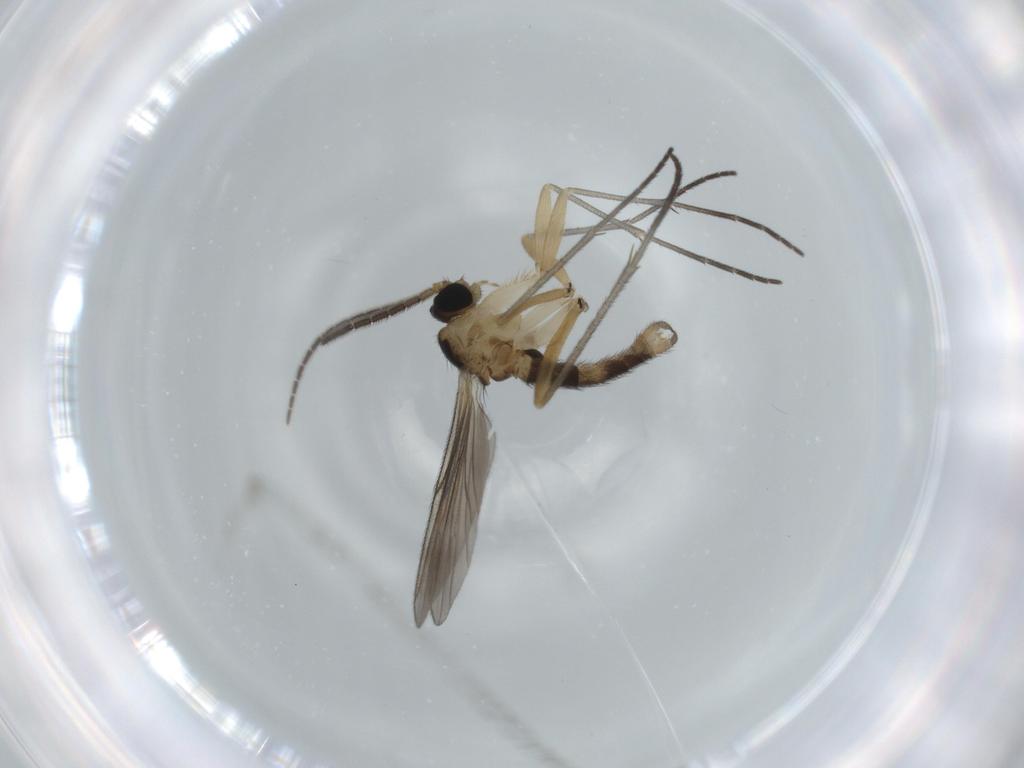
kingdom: Animalia
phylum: Arthropoda
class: Insecta
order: Diptera
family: Sciaridae
